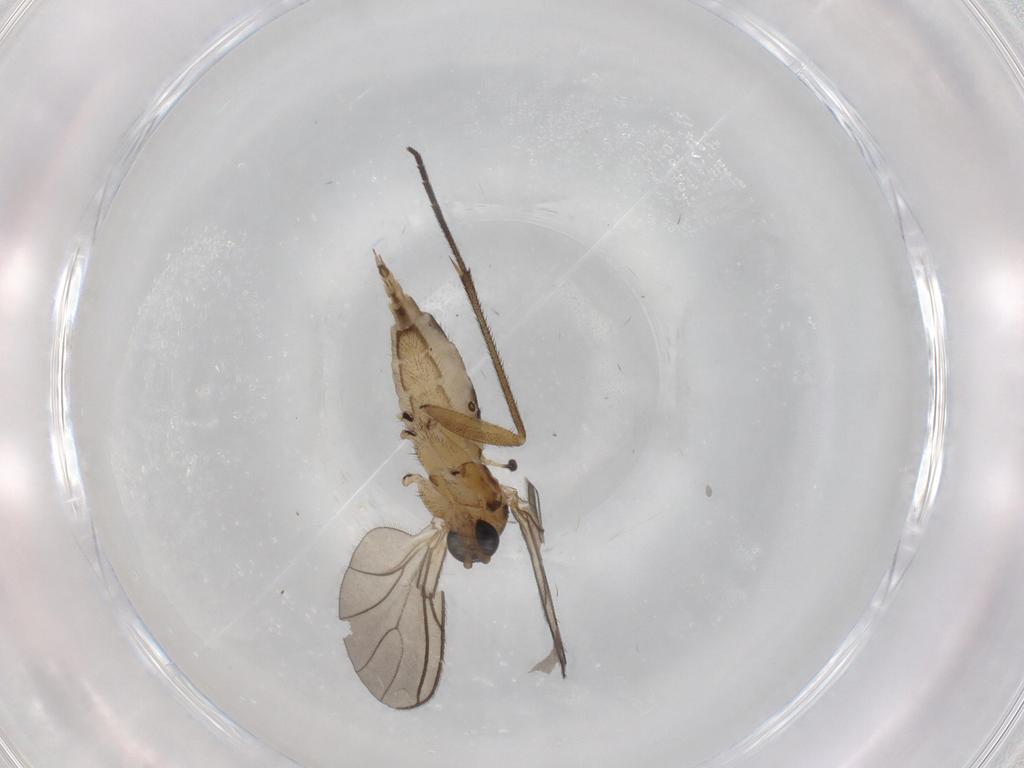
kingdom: Animalia
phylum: Arthropoda
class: Insecta
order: Diptera
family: Sciaridae
